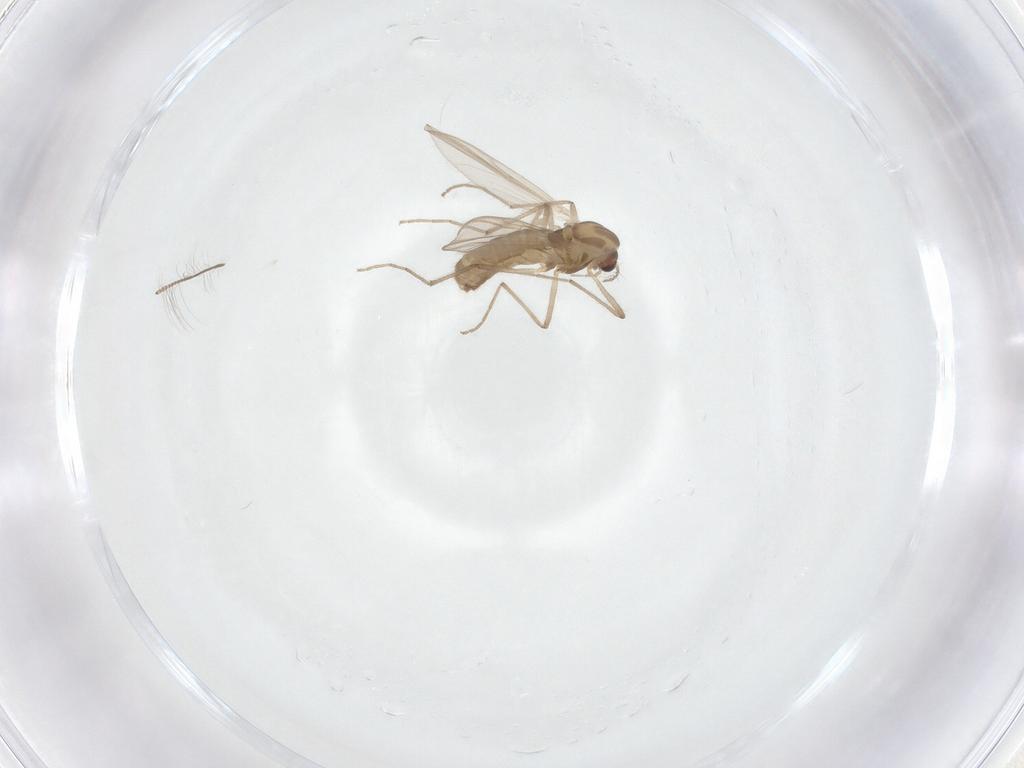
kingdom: Animalia
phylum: Arthropoda
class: Insecta
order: Diptera
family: Chironomidae
